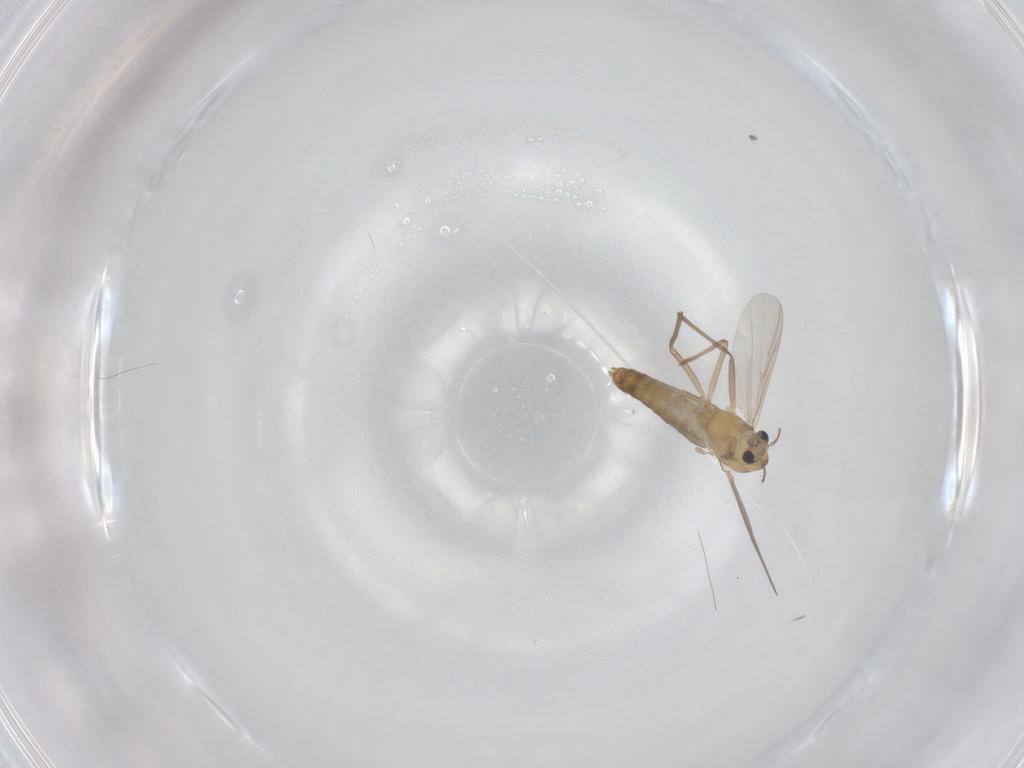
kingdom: Animalia
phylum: Arthropoda
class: Insecta
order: Diptera
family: Chironomidae
